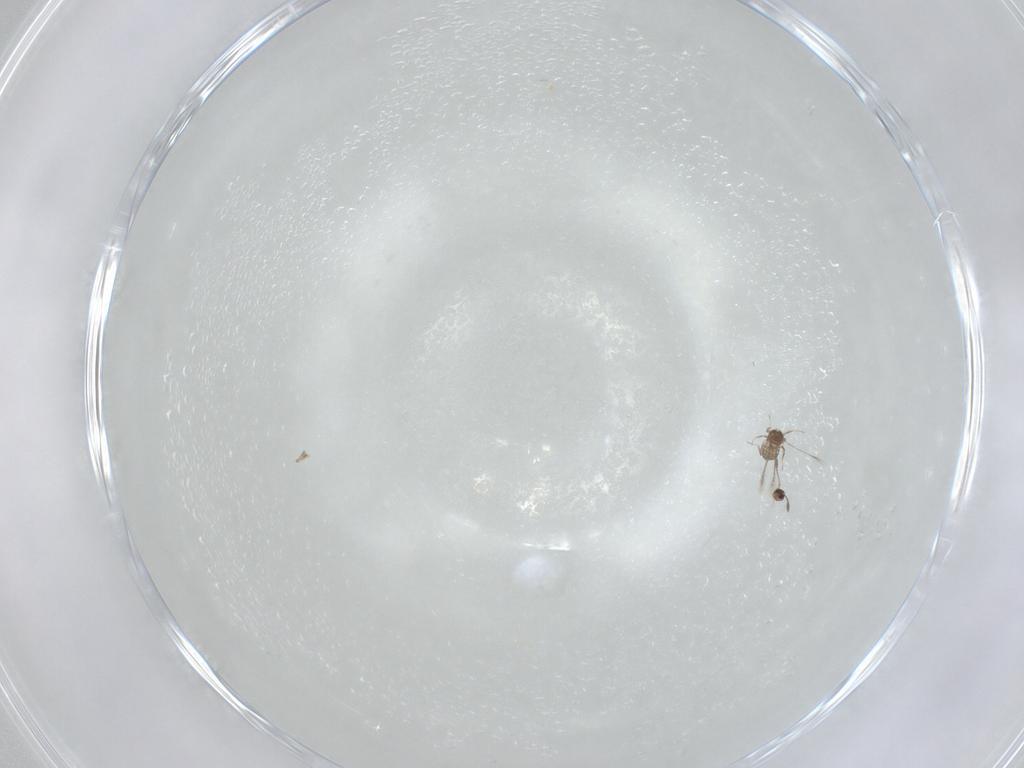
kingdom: Animalia
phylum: Arthropoda
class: Insecta
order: Hymenoptera
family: Mymaridae
